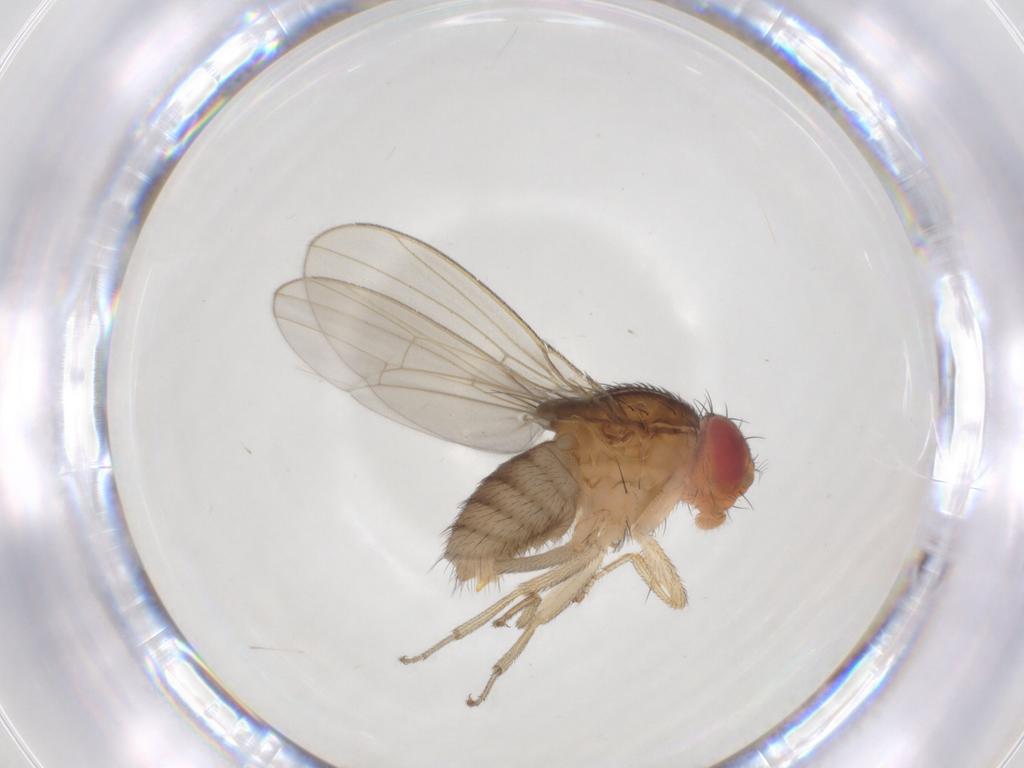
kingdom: Animalia
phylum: Arthropoda
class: Insecta
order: Diptera
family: Drosophilidae
